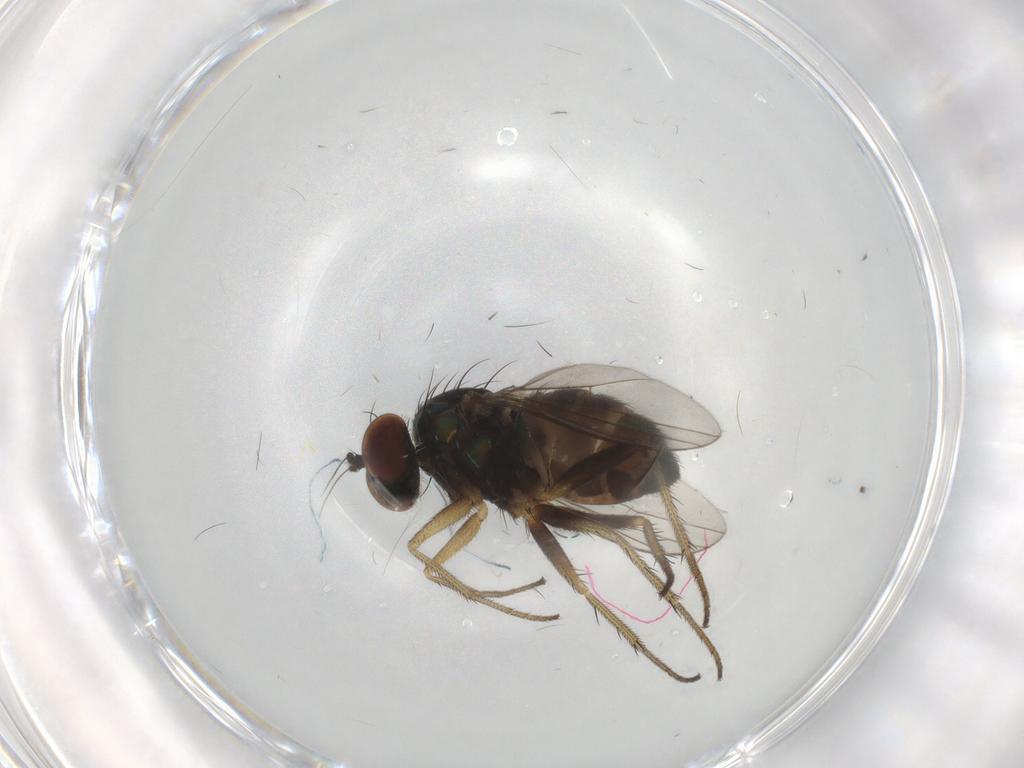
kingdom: Animalia
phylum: Arthropoda
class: Insecta
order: Diptera
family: Dolichopodidae
